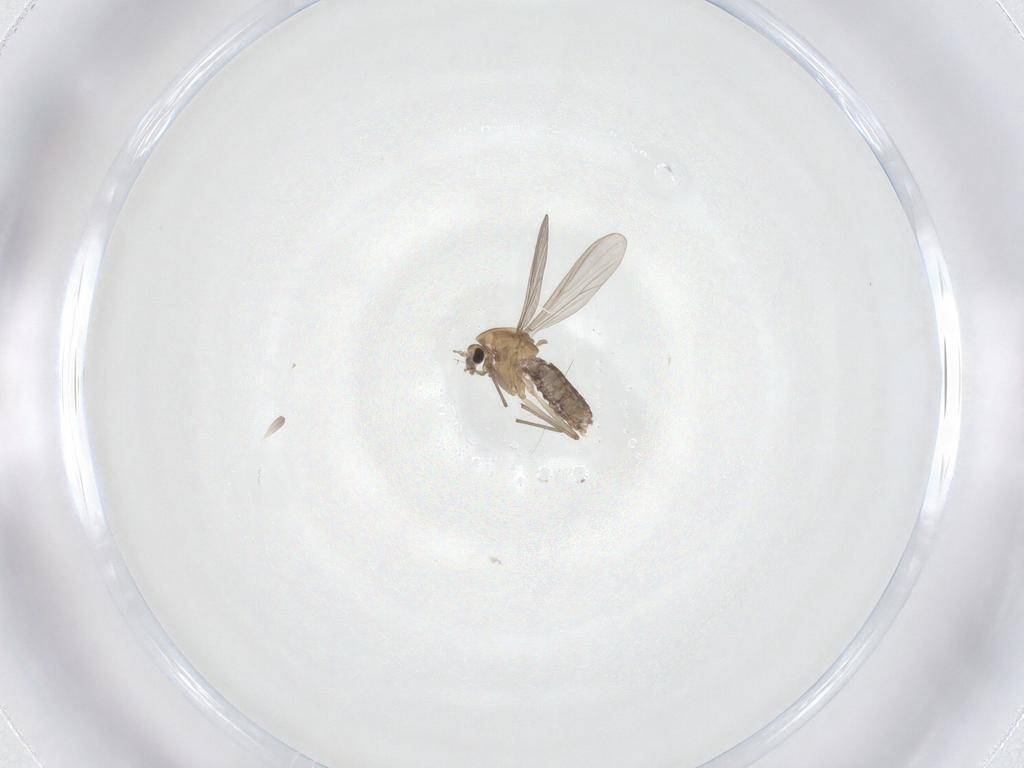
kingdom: Animalia
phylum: Arthropoda
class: Insecta
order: Diptera
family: Chironomidae
